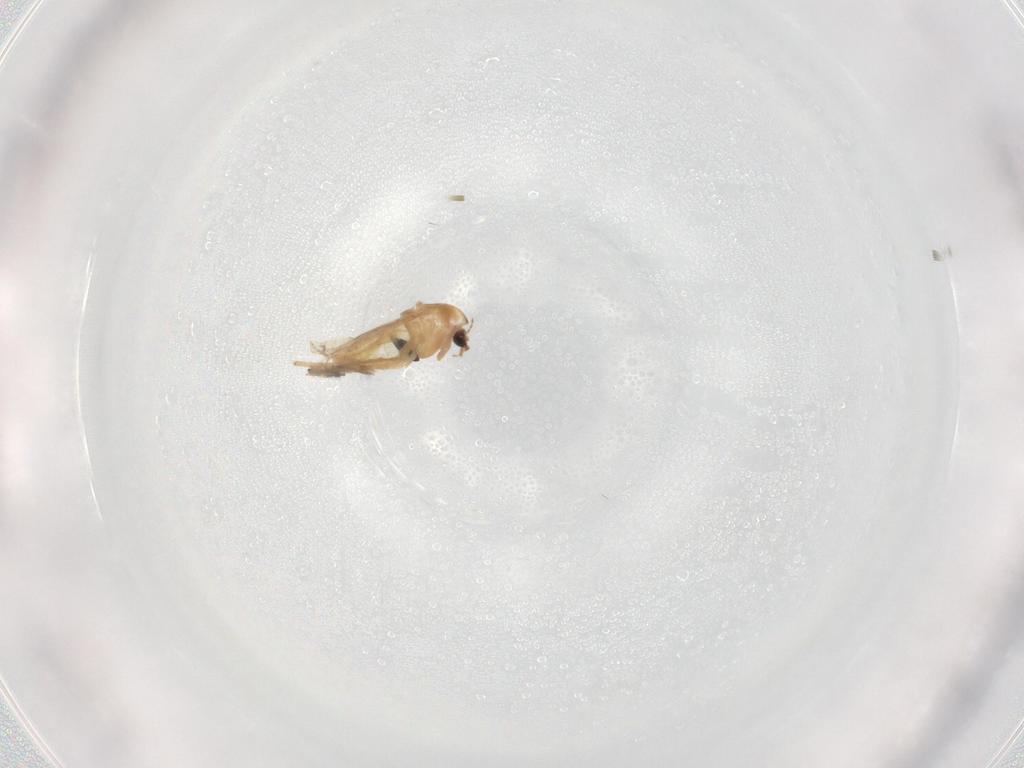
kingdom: Animalia
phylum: Arthropoda
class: Insecta
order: Diptera
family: Sciaridae
